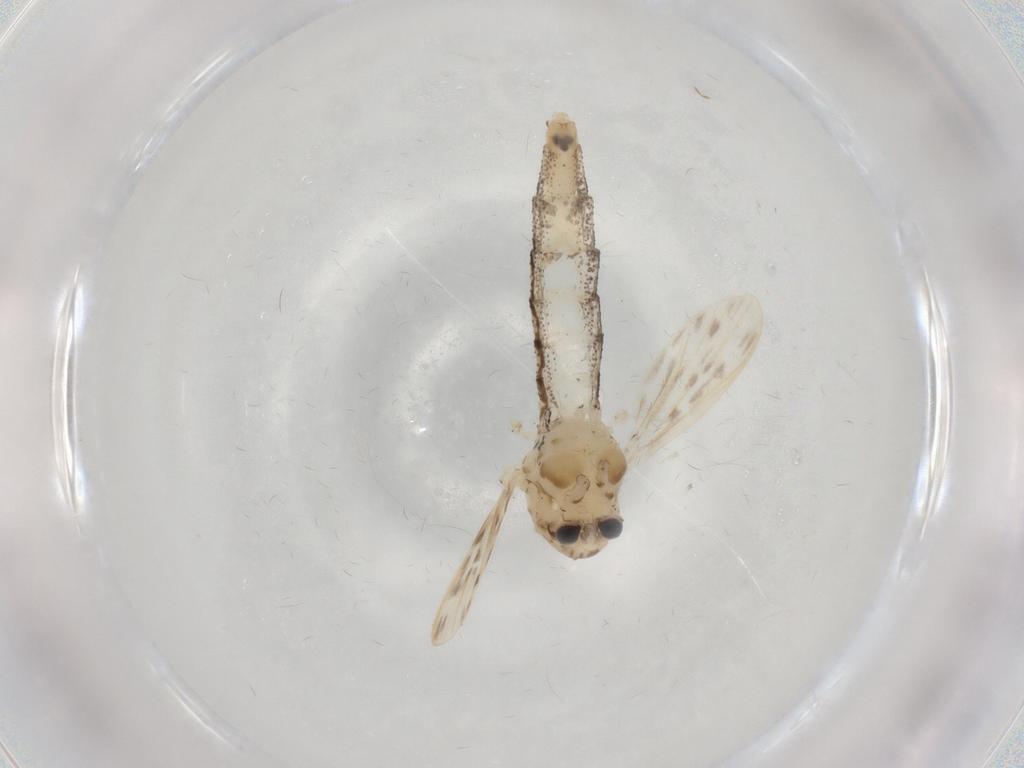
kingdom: Animalia
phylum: Arthropoda
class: Insecta
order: Diptera
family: Chaoboridae
